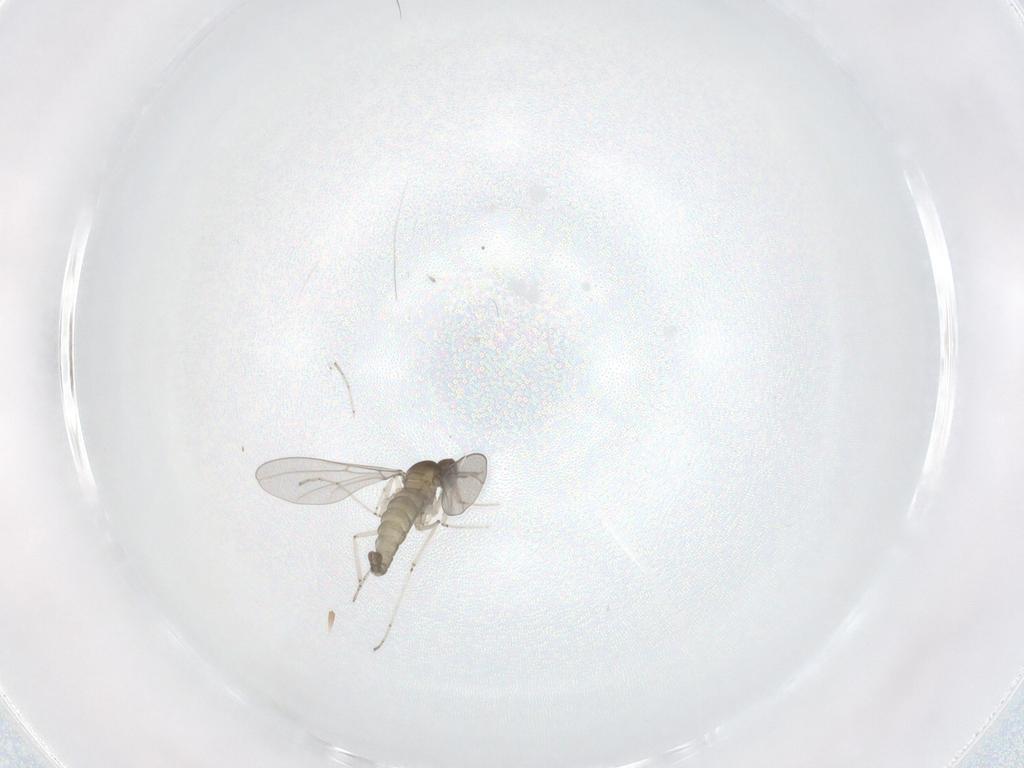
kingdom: Animalia
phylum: Arthropoda
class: Insecta
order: Diptera
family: Cecidomyiidae
